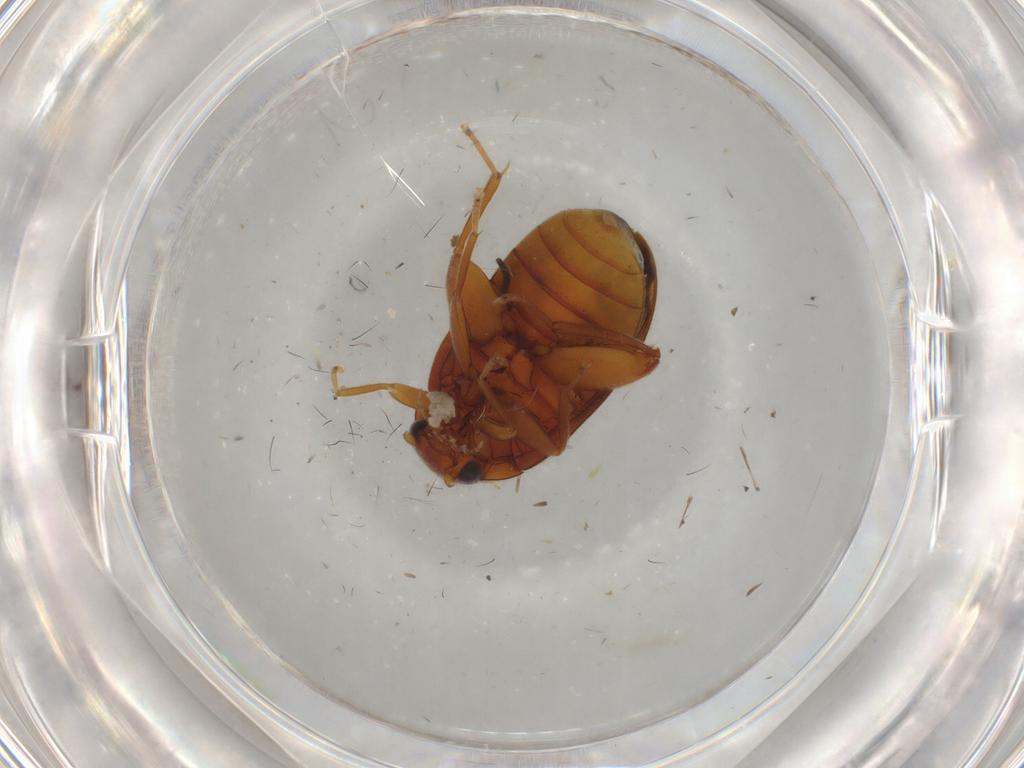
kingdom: Animalia
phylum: Arthropoda
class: Insecta
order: Coleoptera
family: Scirtidae
